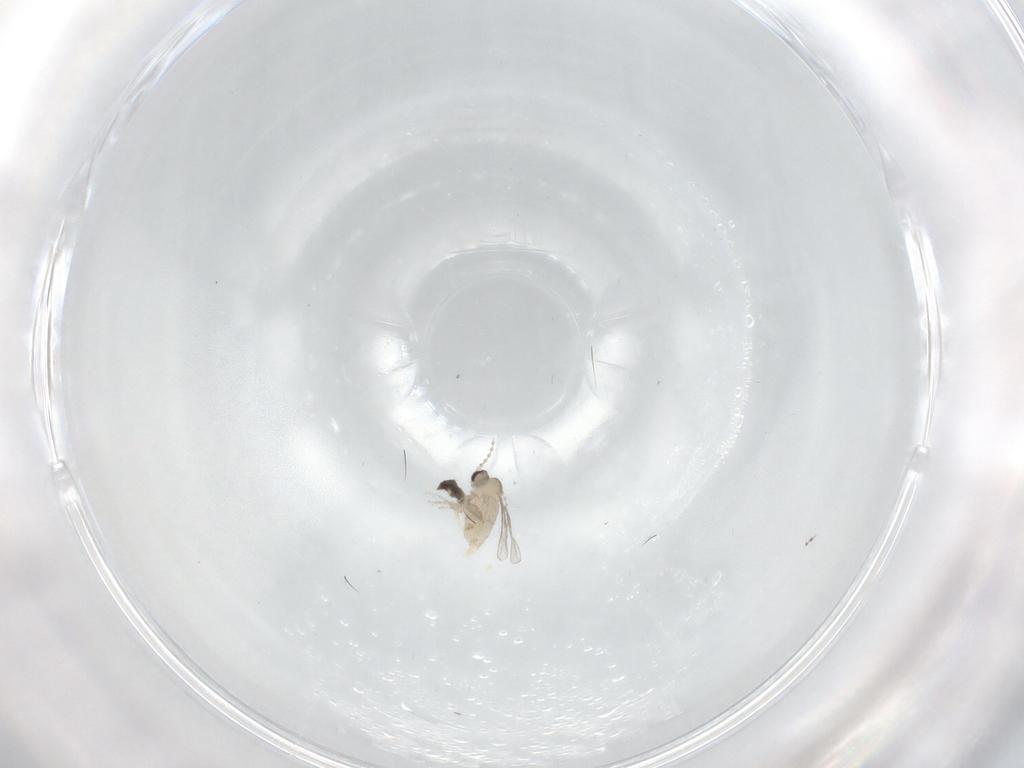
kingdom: Animalia
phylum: Arthropoda
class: Insecta
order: Diptera
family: Cecidomyiidae
